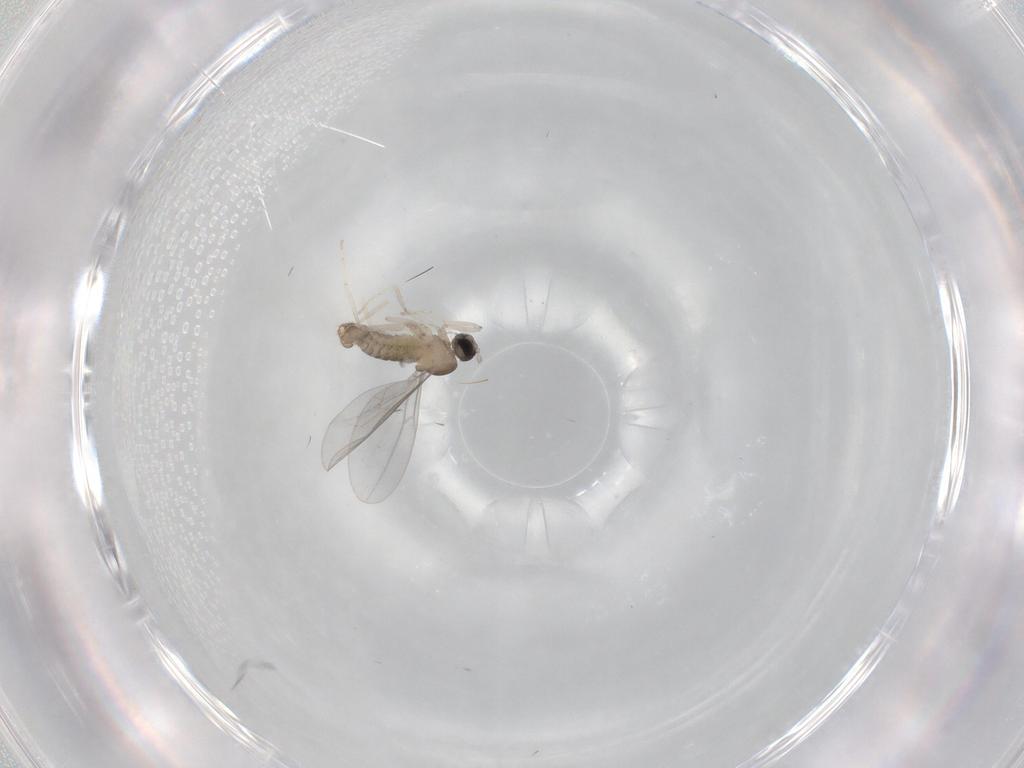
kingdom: Animalia
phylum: Arthropoda
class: Insecta
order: Diptera
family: Cecidomyiidae
